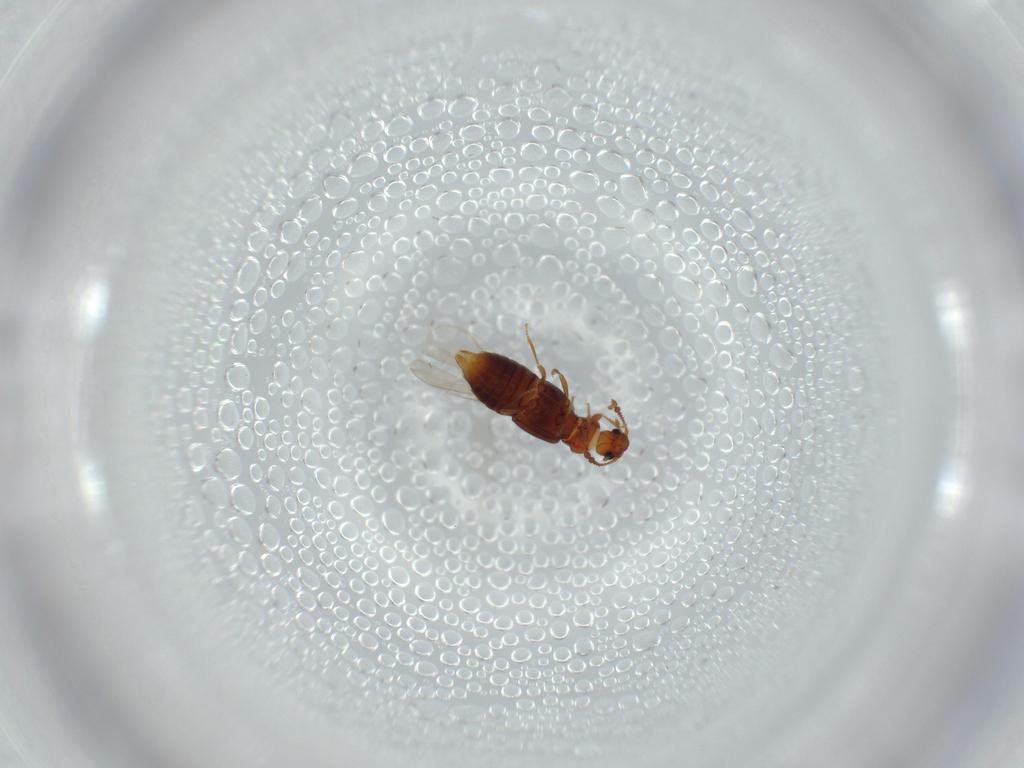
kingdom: Animalia
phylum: Arthropoda
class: Insecta
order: Coleoptera
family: Staphylinidae
